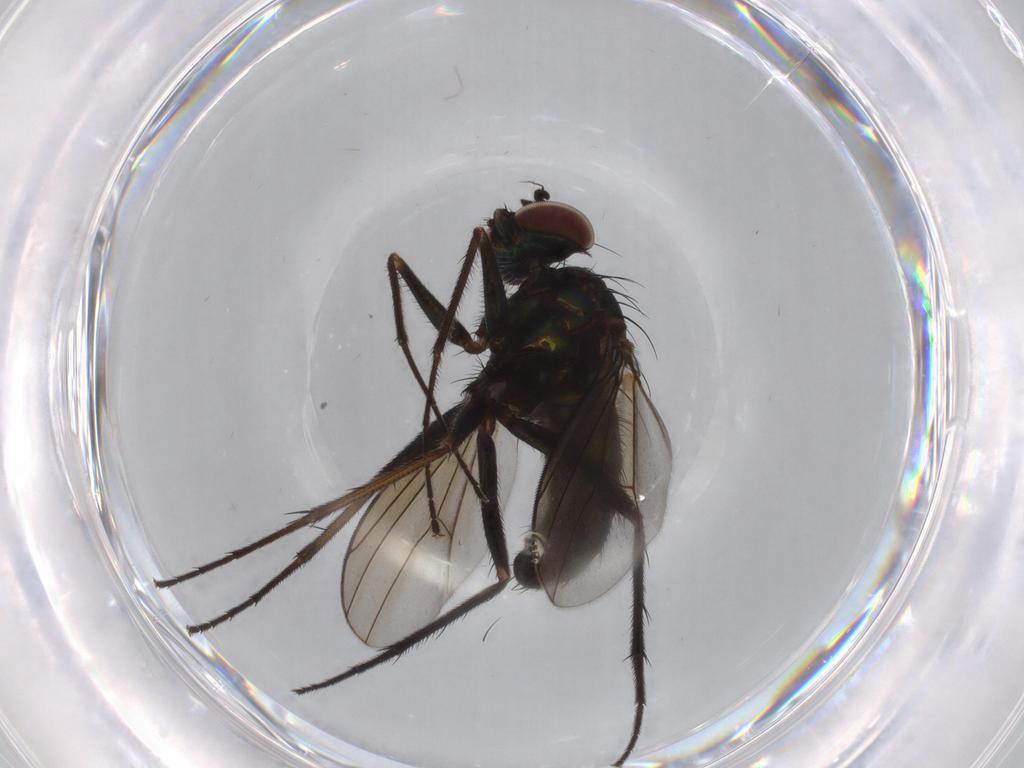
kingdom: Animalia
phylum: Arthropoda
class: Insecta
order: Diptera
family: Dolichopodidae
